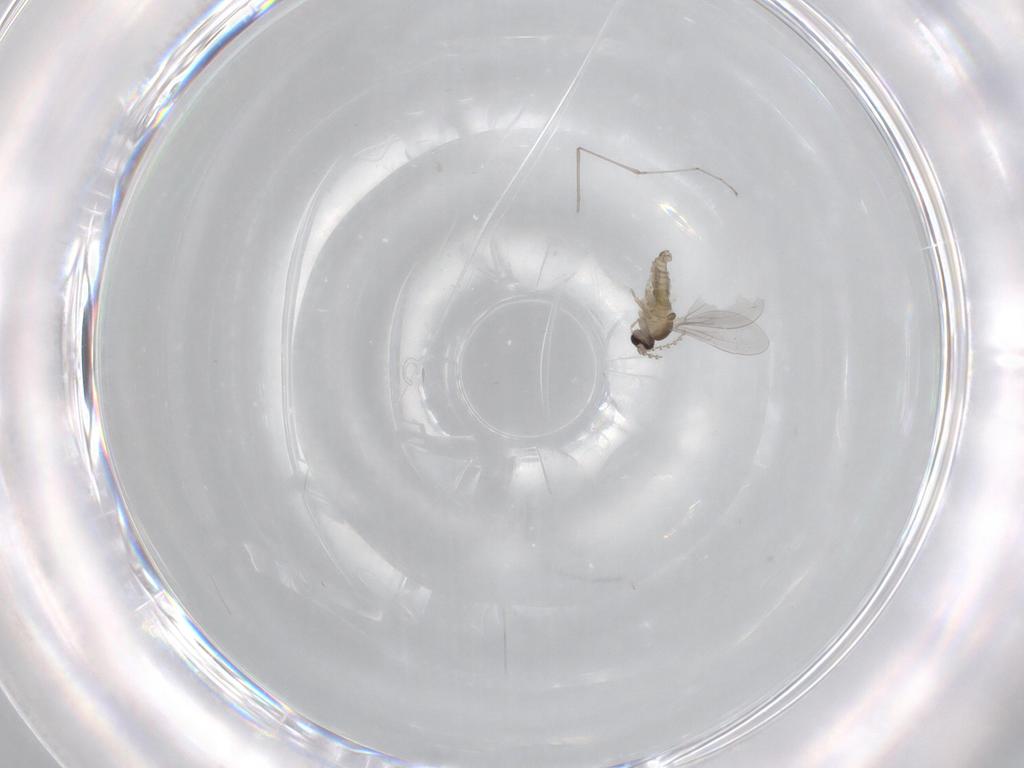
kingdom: Animalia
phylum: Arthropoda
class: Insecta
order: Diptera
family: Cecidomyiidae
